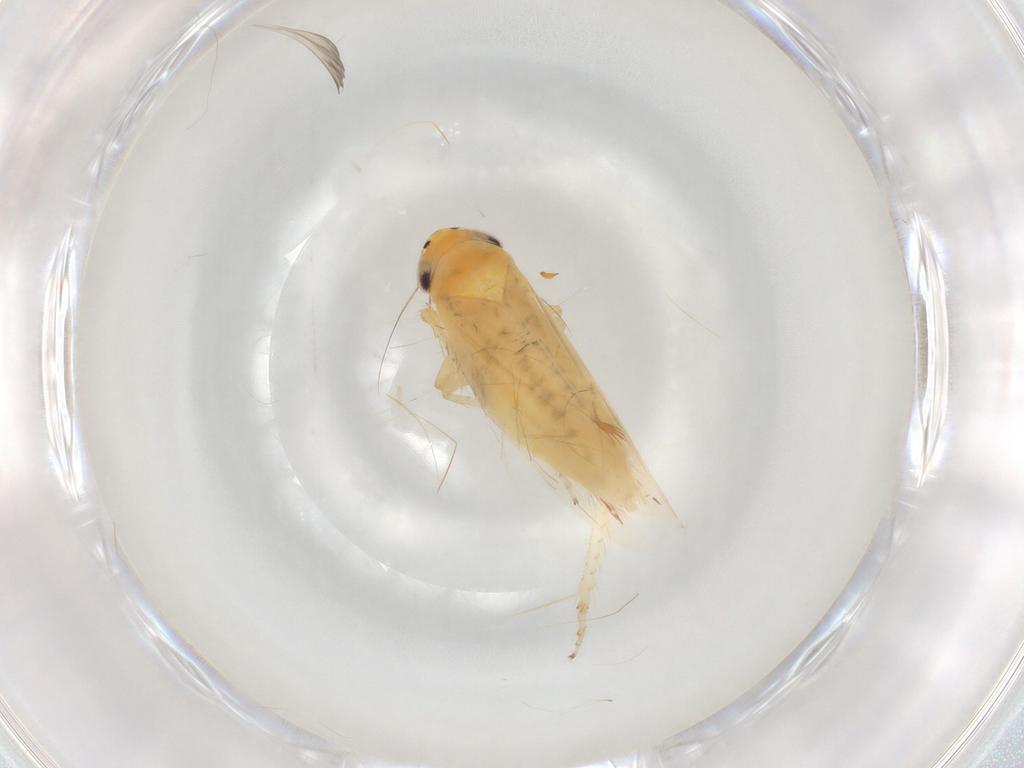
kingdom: Animalia
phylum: Arthropoda
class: Insecta
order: Hemiptera
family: Cicadellidae
